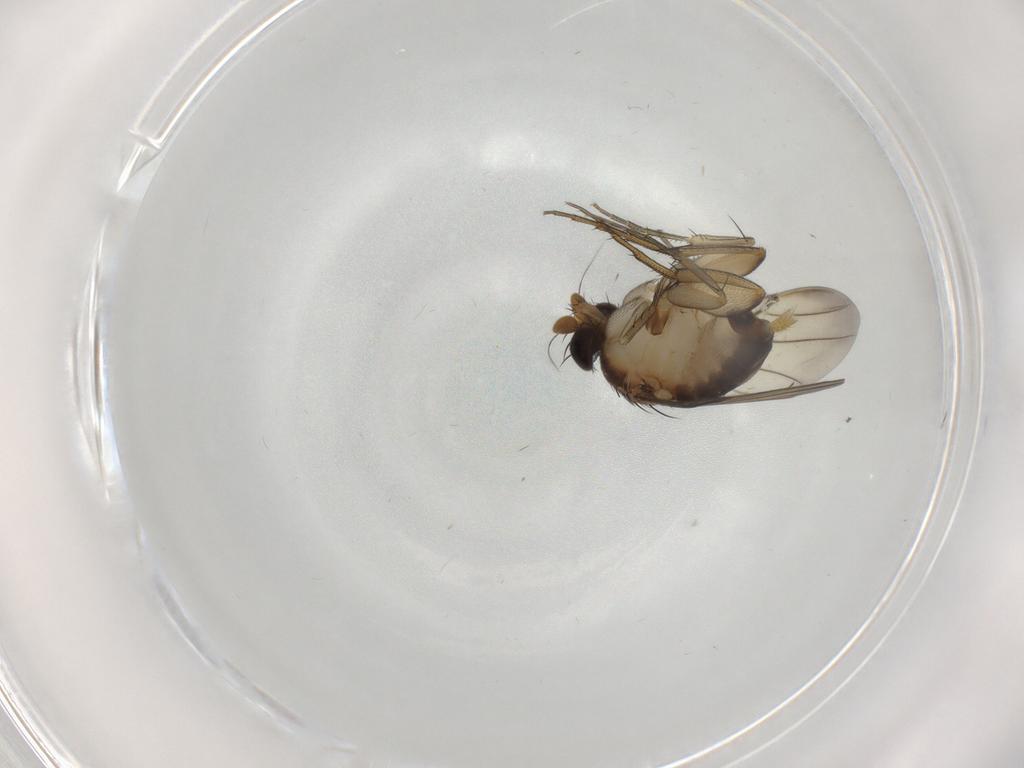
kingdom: Animalia
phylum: Arthropoda
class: Insecta
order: Diptera
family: Phoridae
